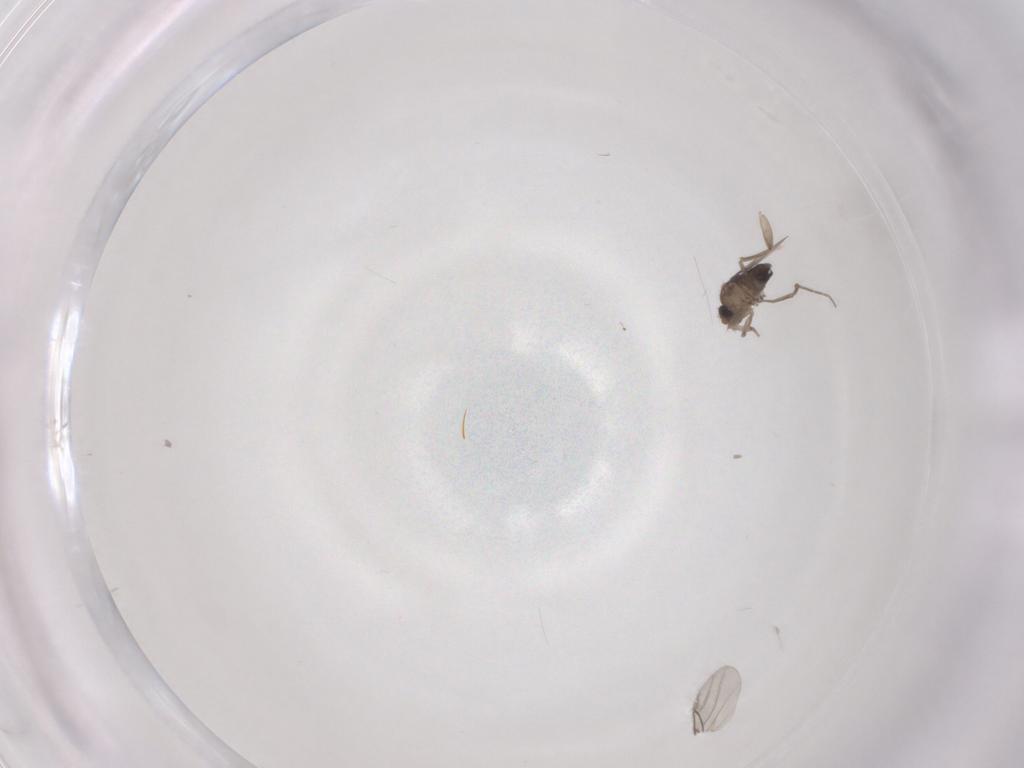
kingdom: Animalia
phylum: Arthropoda
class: Insecta
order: Diptera
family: Phoridae
